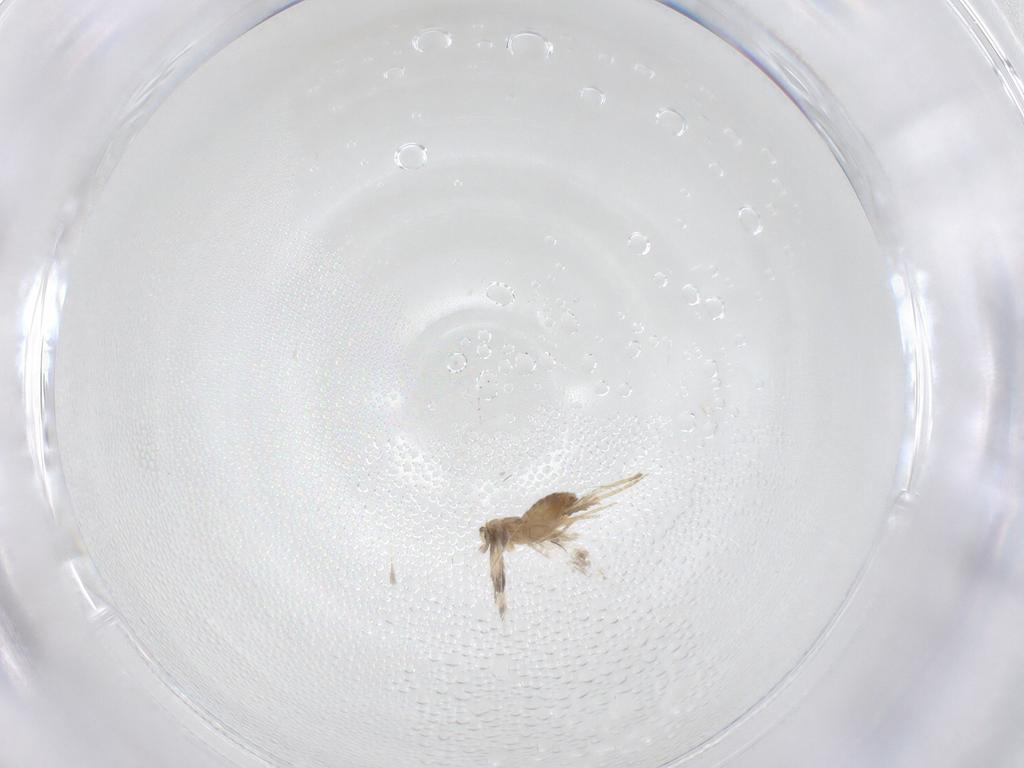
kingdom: Animalia
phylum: Arthropoda
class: Insecta
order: Lepidoptera
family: Nepticulidae
